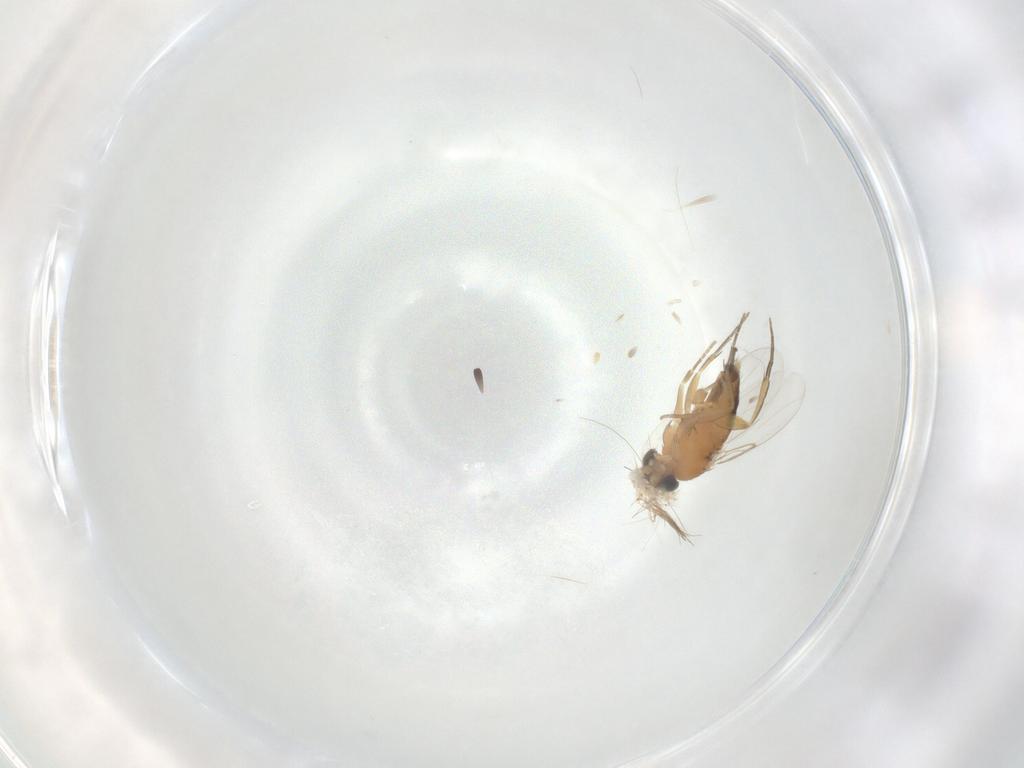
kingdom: Animalia
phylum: Arthropoda
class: Insecta
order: Diptera
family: Phoridae
